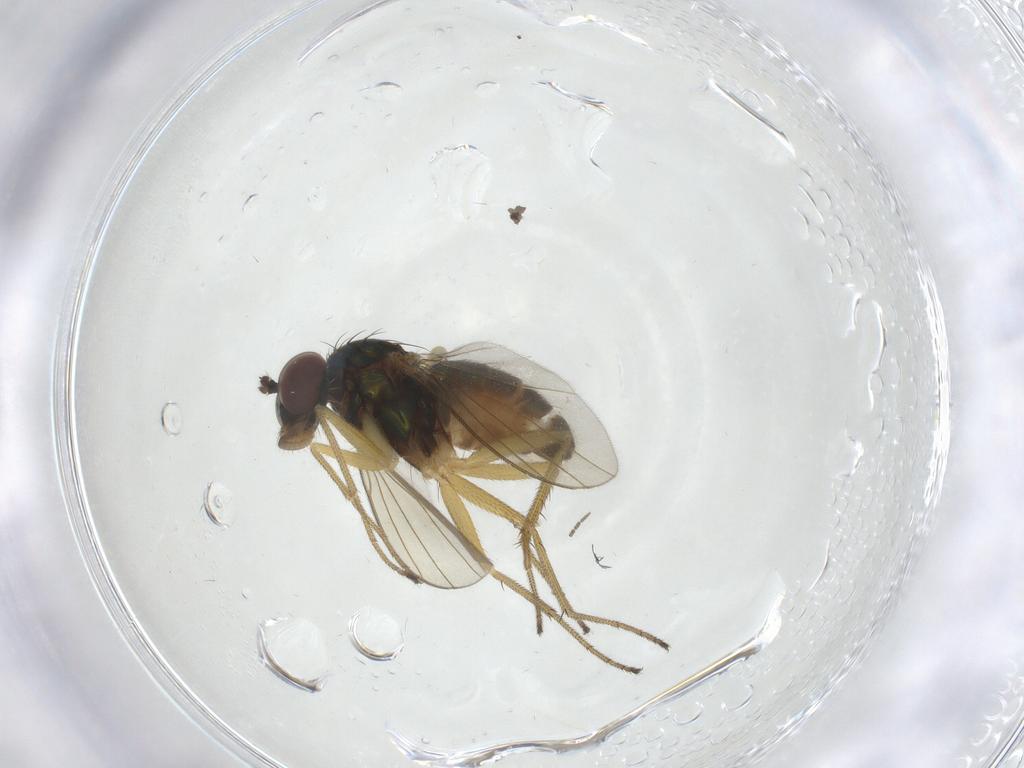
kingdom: Animalia
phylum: Arthropoda
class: Insecta
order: Diptera
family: Dolichopodidae
